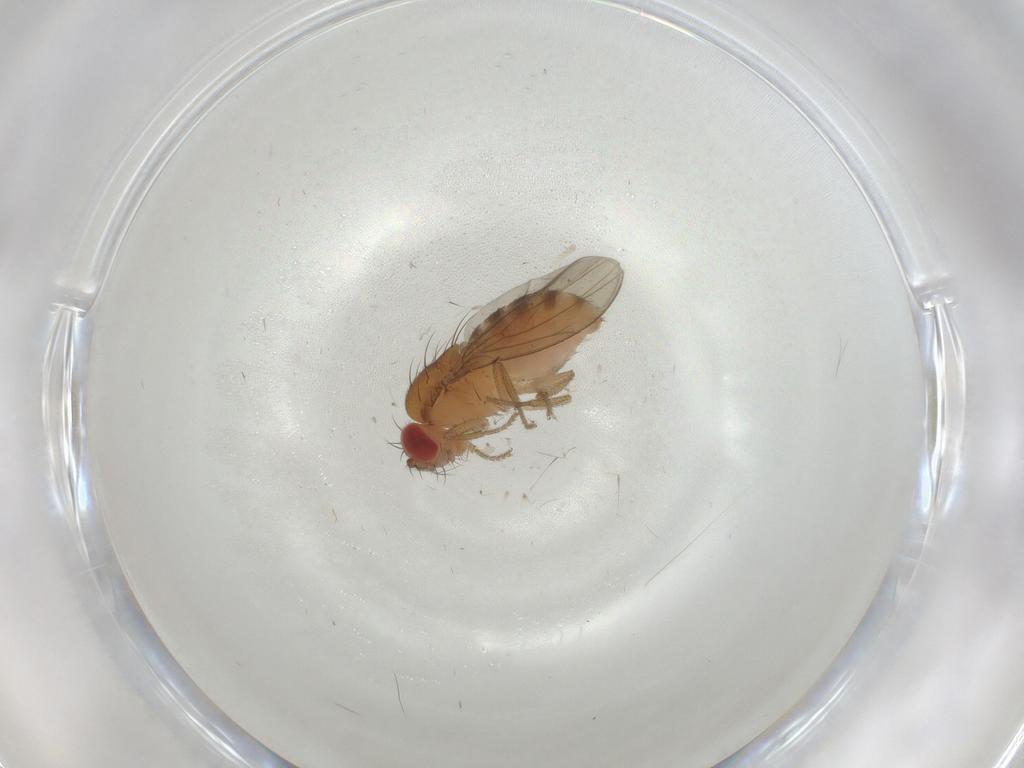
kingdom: Animalia
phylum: Arthropoda
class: Insecta
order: Diptera
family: Drosophilidae
